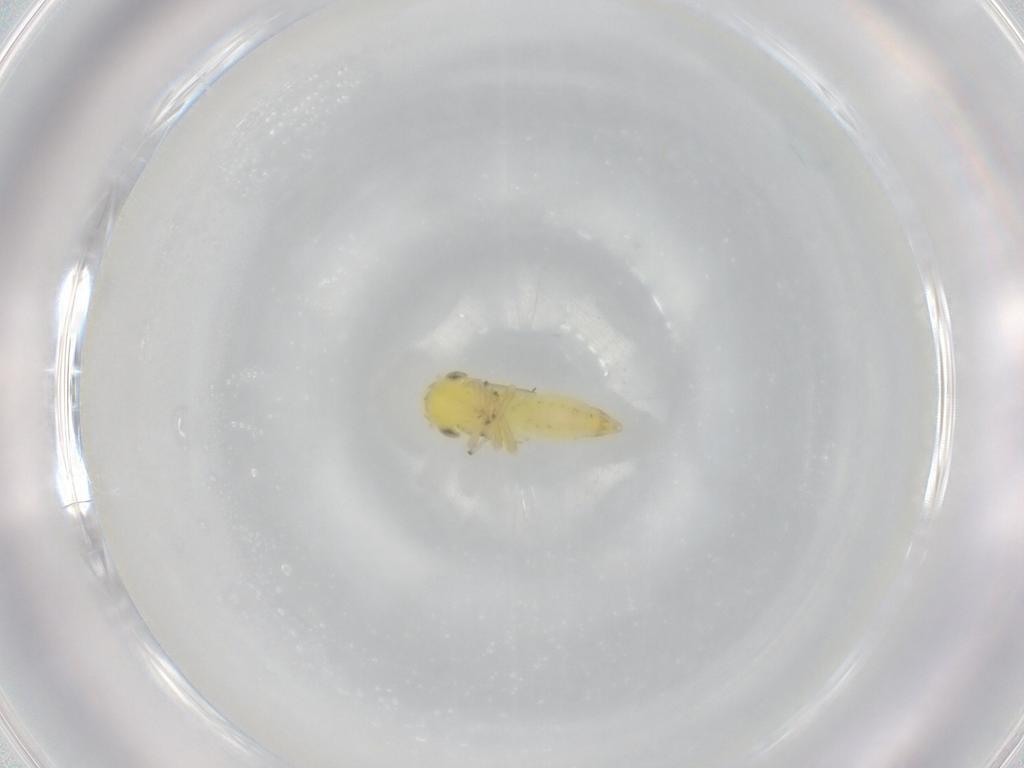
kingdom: Animalia
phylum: Arthropoda
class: Insecta
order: Hemiptera
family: Cicadellidae
